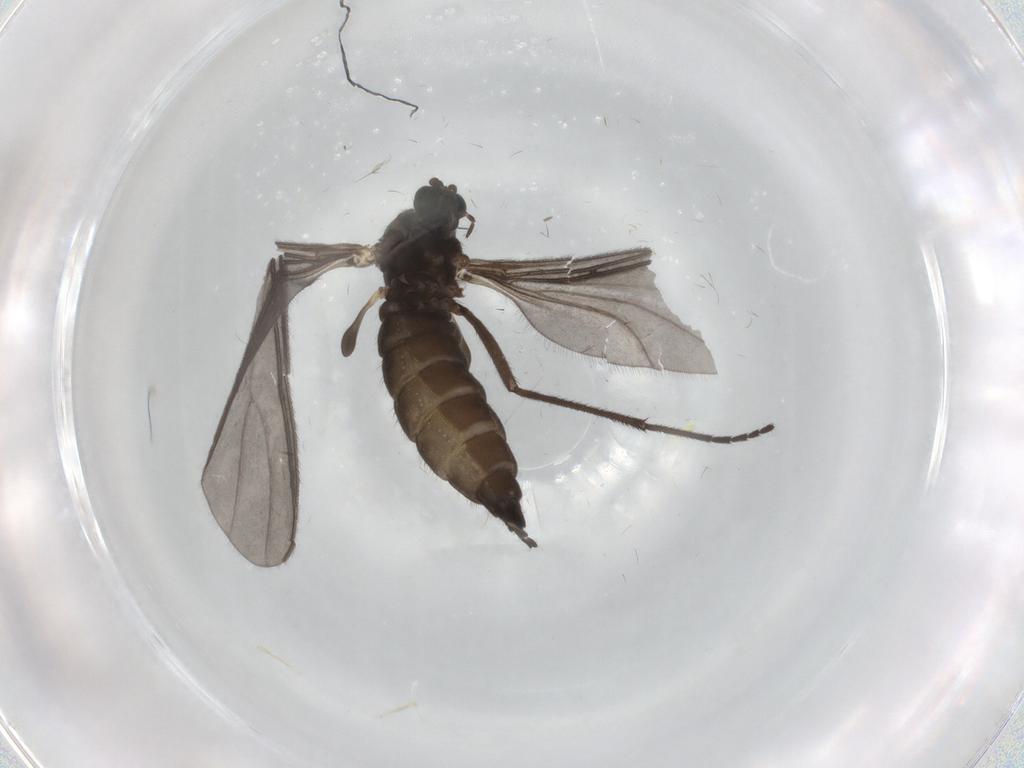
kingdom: Animalia
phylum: Arthropoda
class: Insecta
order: Diptera
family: Sciaridae
